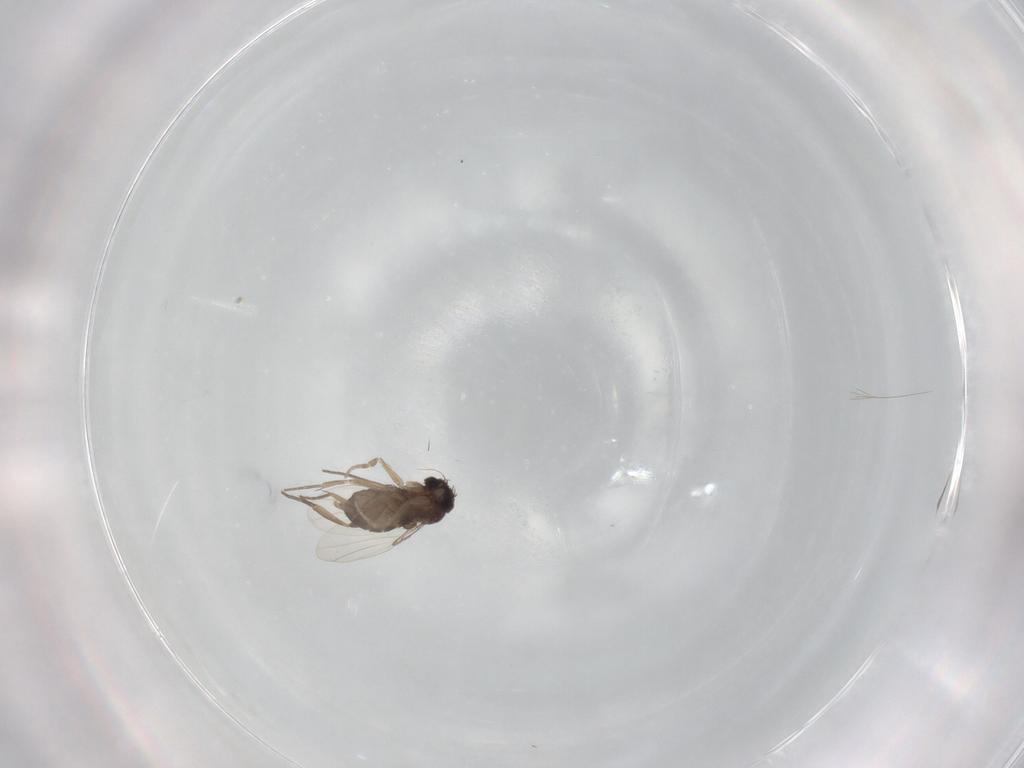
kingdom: Animalia
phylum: Arthropoda
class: Insecta
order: Diptera
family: Phoridae
